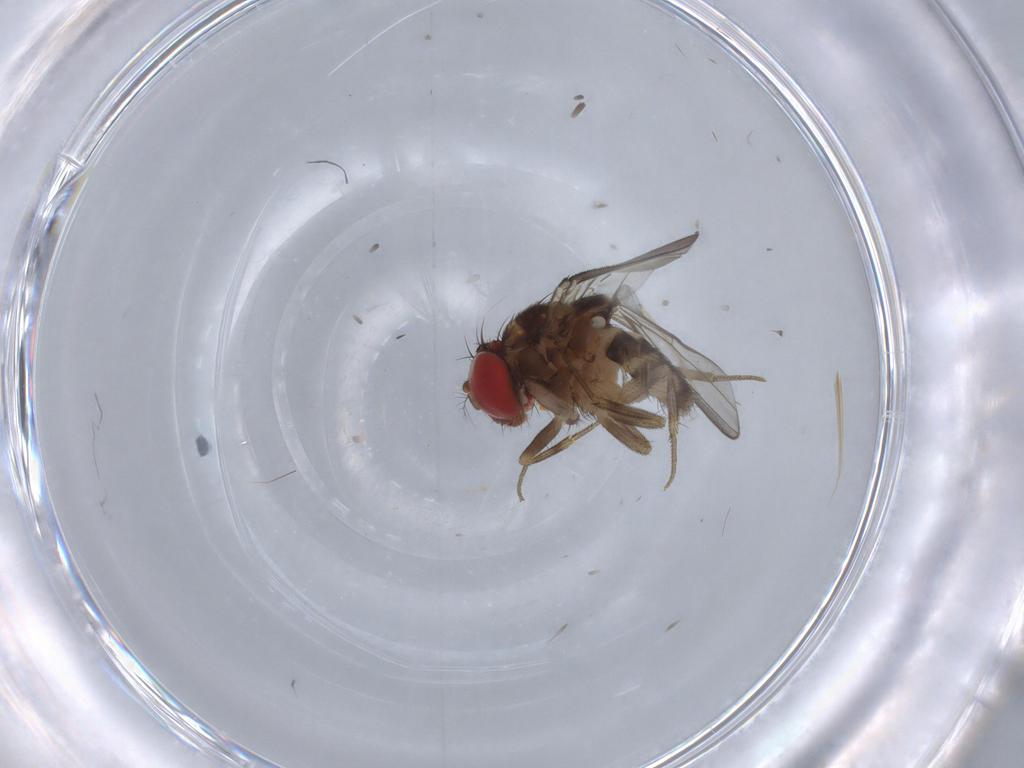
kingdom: Animalia
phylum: Arthropoda
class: Insecta
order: Diptera
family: Drosophilidae
